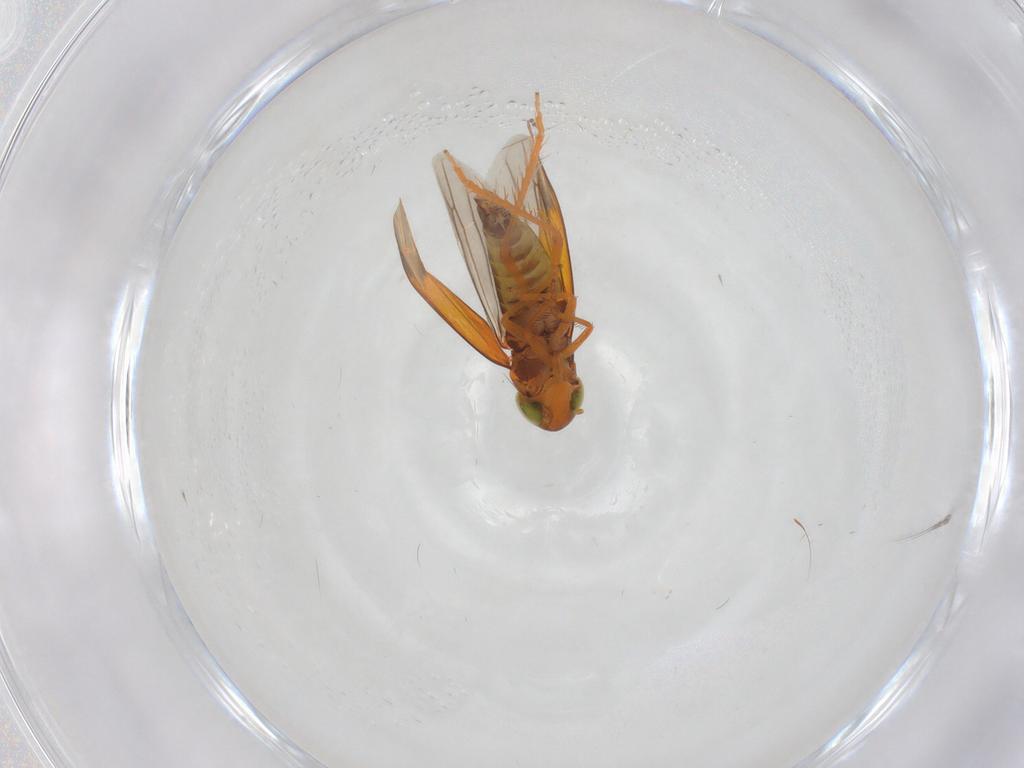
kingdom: Animalia
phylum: Arthropoda
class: Insecta
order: Hemiptera
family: Cicadellidae
